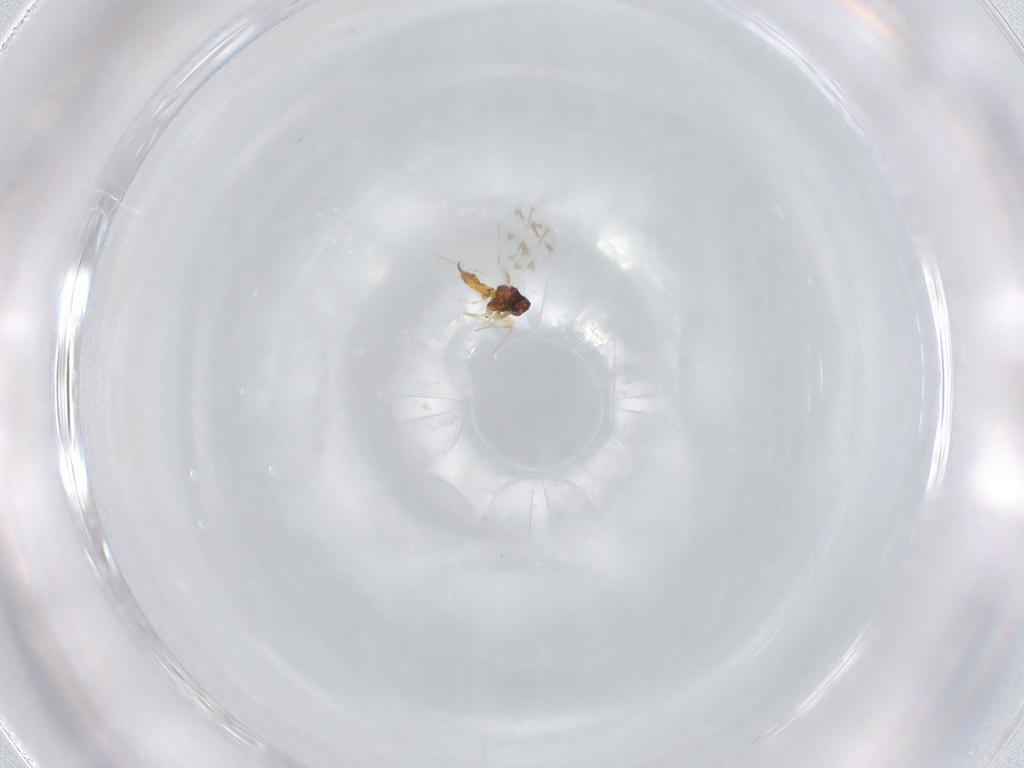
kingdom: Animalia
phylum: Arthropoda
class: Insecta
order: Hemiptera
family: Aleyrodidae
